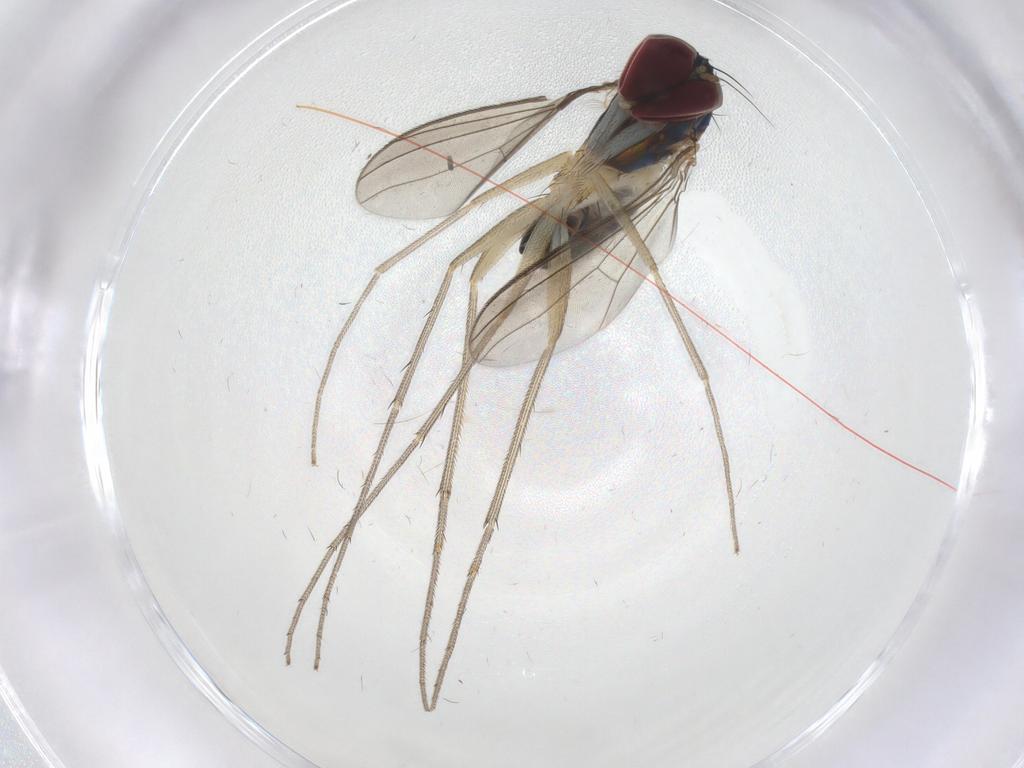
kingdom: Animalia
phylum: Arthropoda
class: Insecta
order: Diptera
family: Dolichopodidae
